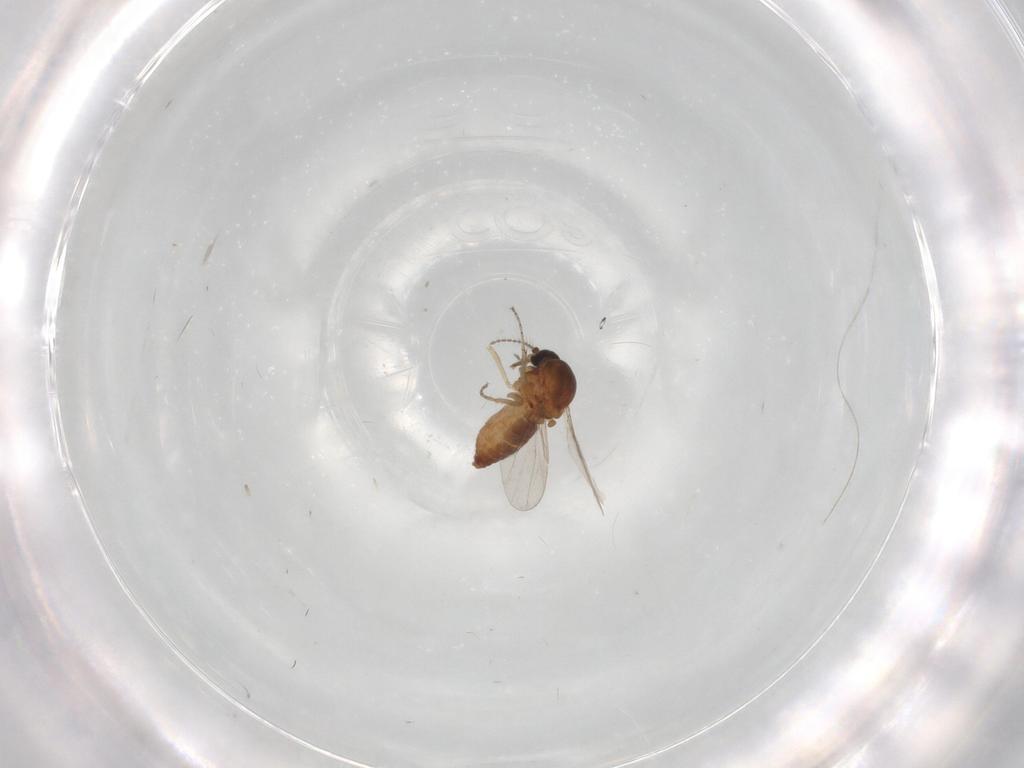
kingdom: Animalia
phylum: Arthropoda
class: Insecta
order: Diptera
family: Ceratopogonidae
